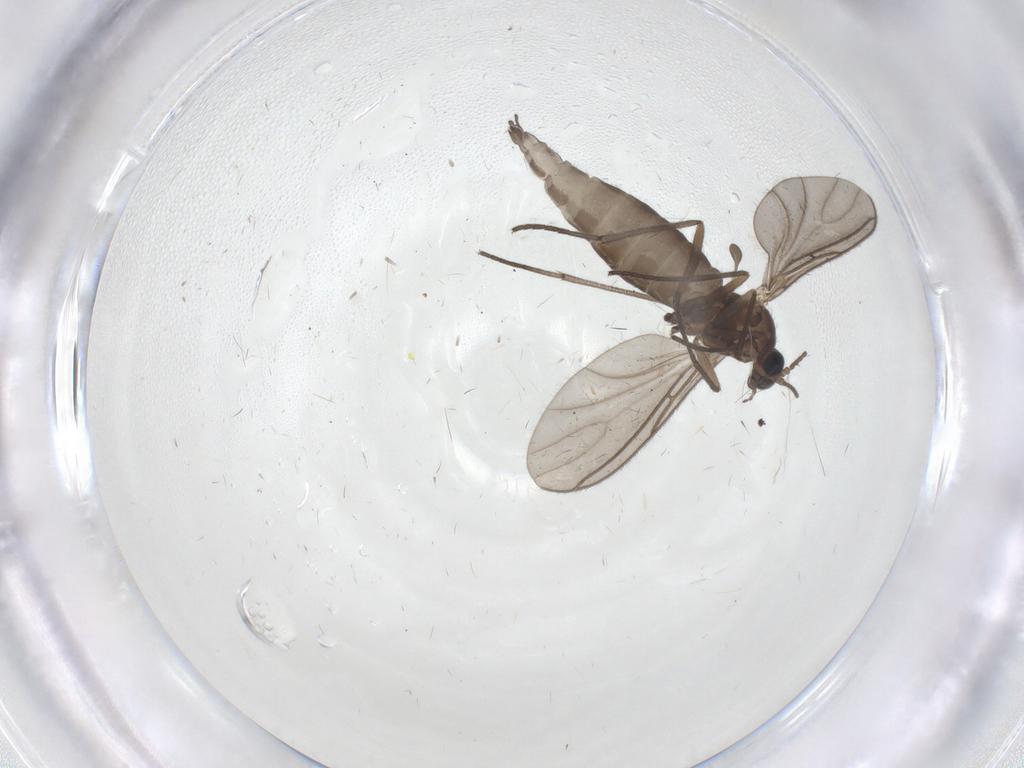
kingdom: Animalia
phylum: Arthropoda
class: Insecta
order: Diptera
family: Sciaridae
